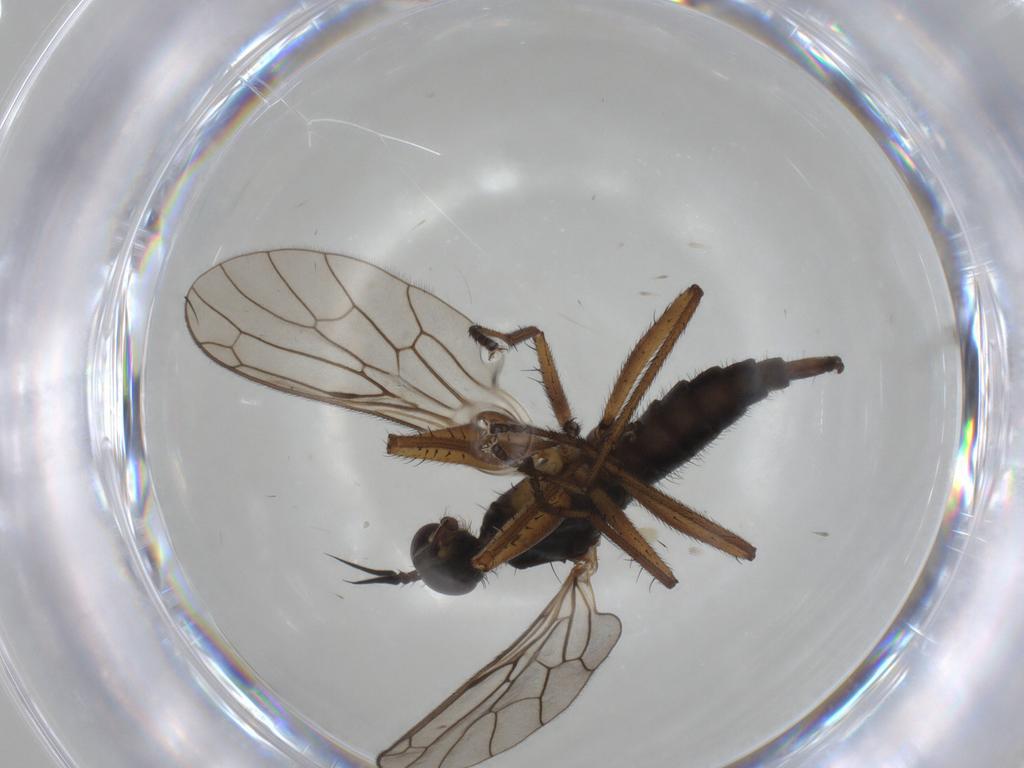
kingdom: Animalia
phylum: Arthropoda
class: Insecta
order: Diptera
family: Empididae
